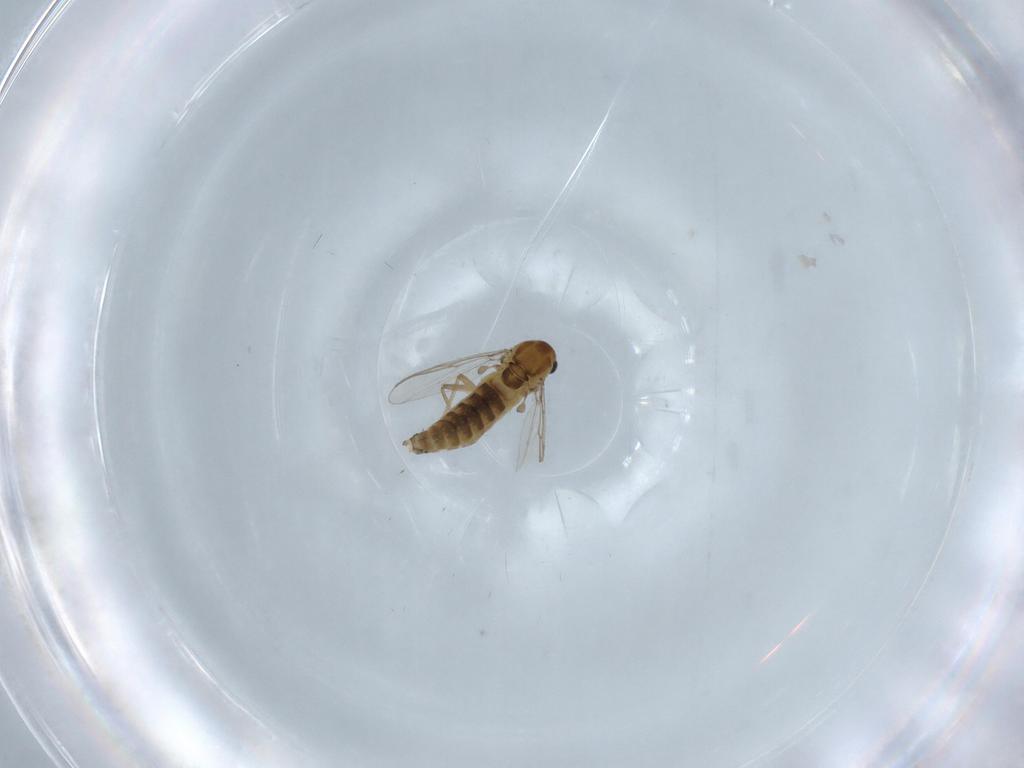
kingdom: Animalia
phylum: Arthropoda
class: Insecta
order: Diptera
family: Chironomidae
